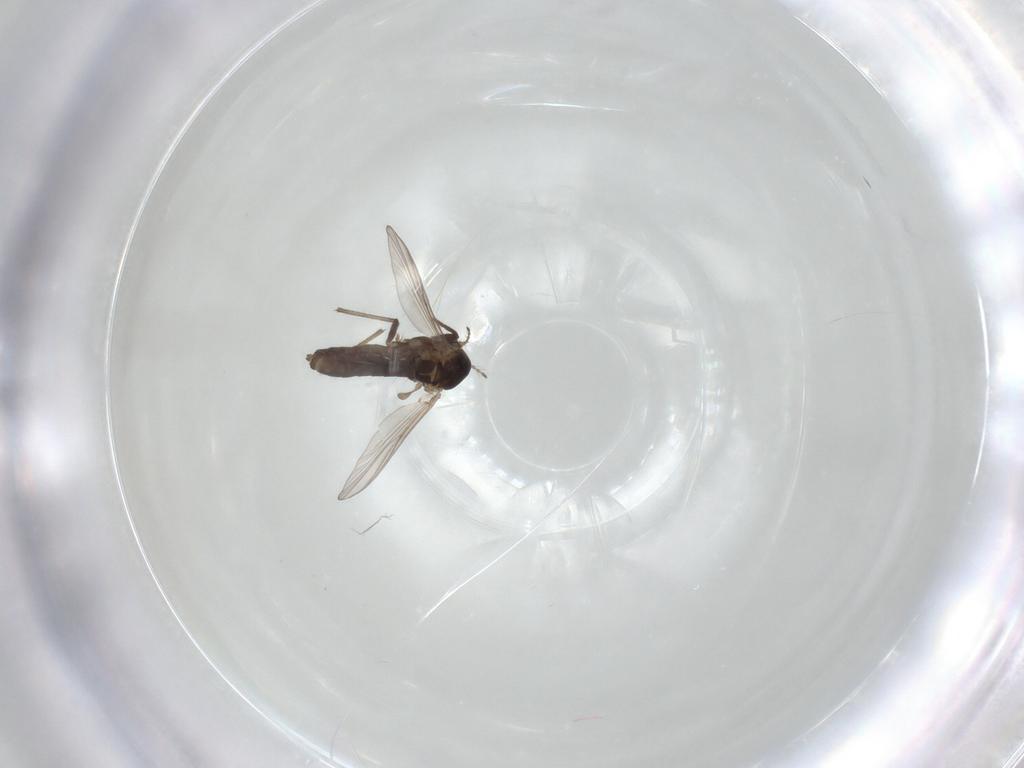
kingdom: Animalia
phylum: Arthropoda
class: Insecta
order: Diptera
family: Chironomidae
